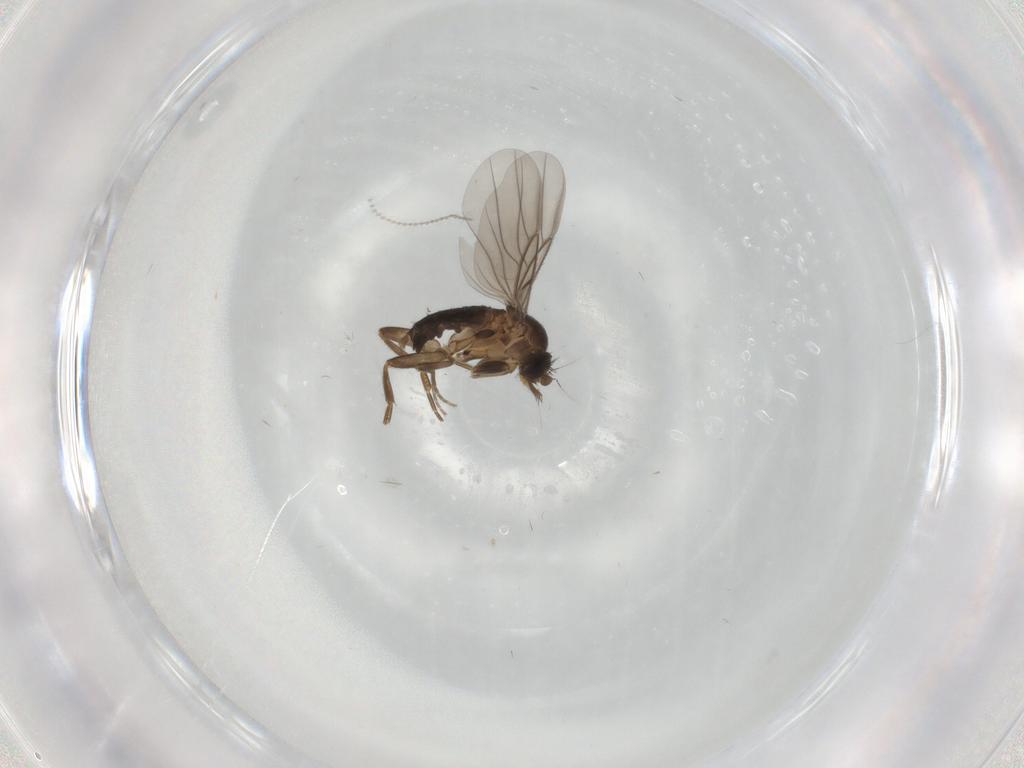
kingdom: Animalia
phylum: Arthropoda
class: Insecta
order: Diptera
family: Cecidomyiidae
